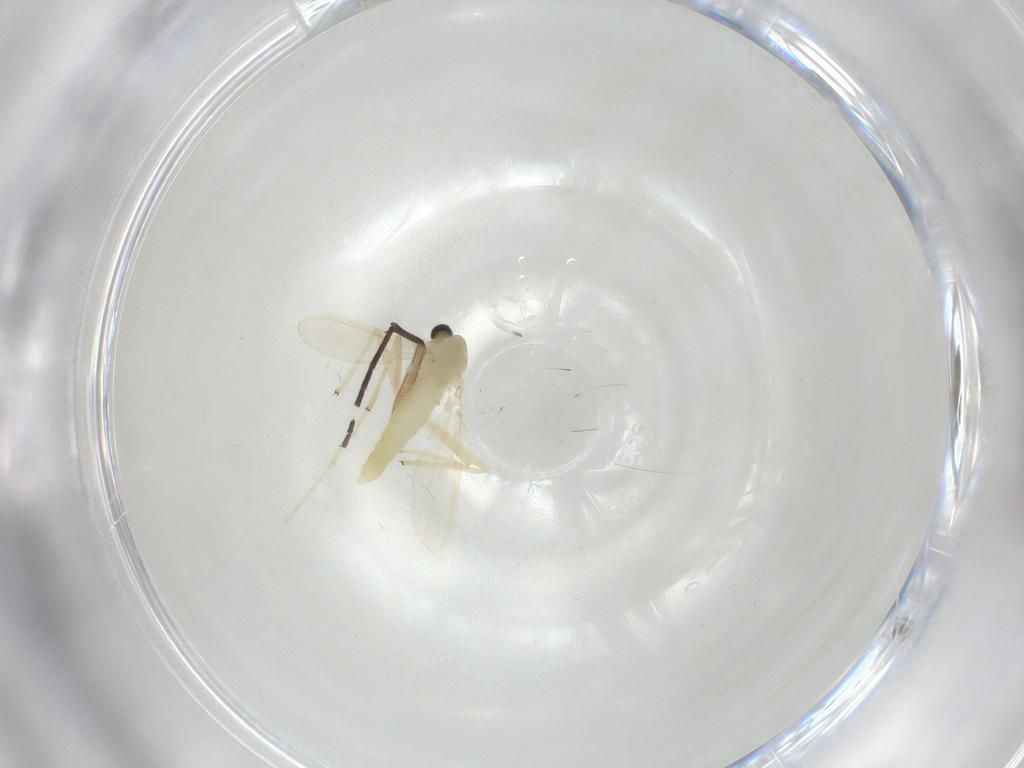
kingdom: Animalia
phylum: Arthropoda
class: Insecta
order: Diptera
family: Chironomidae
